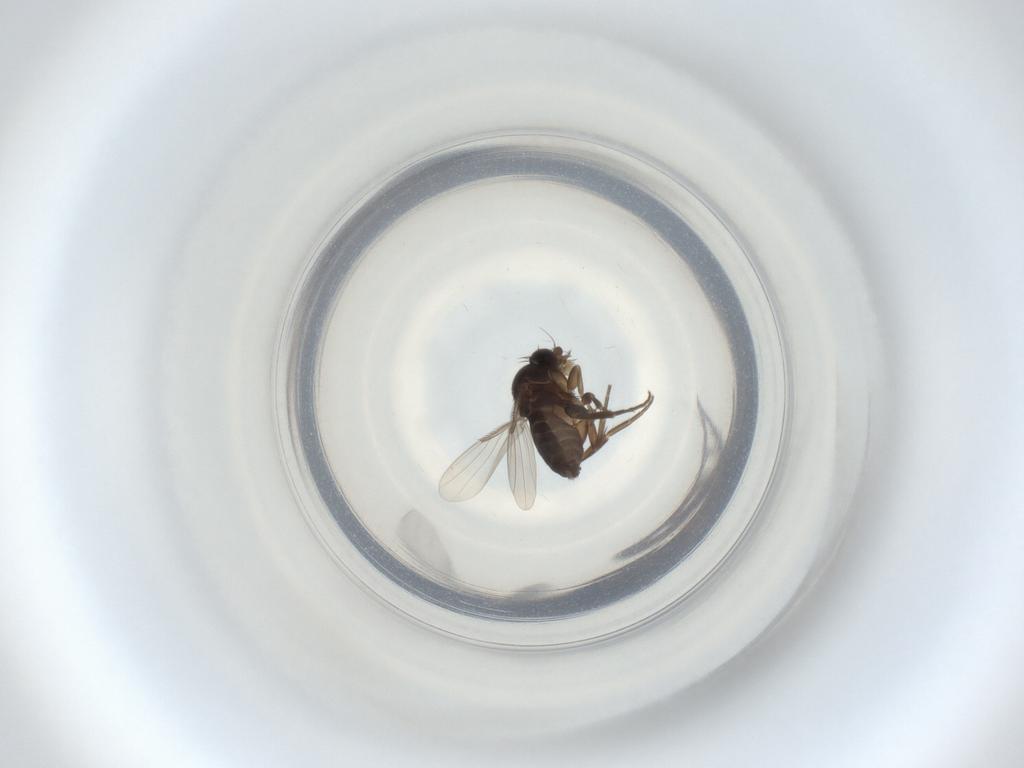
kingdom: Animalia
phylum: Arthropoda
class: Insecta
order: Diptera
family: Phoridae
